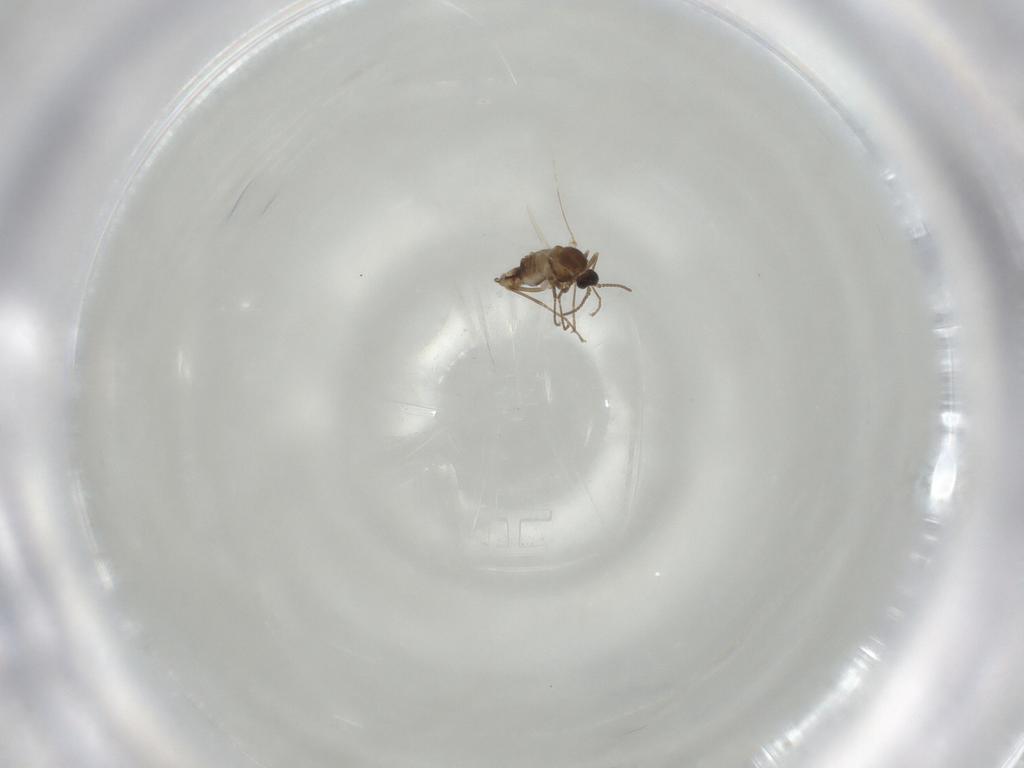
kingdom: Animalia
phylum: Arthropoda
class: Insecta
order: Diptera
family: Cecidomyiidae
